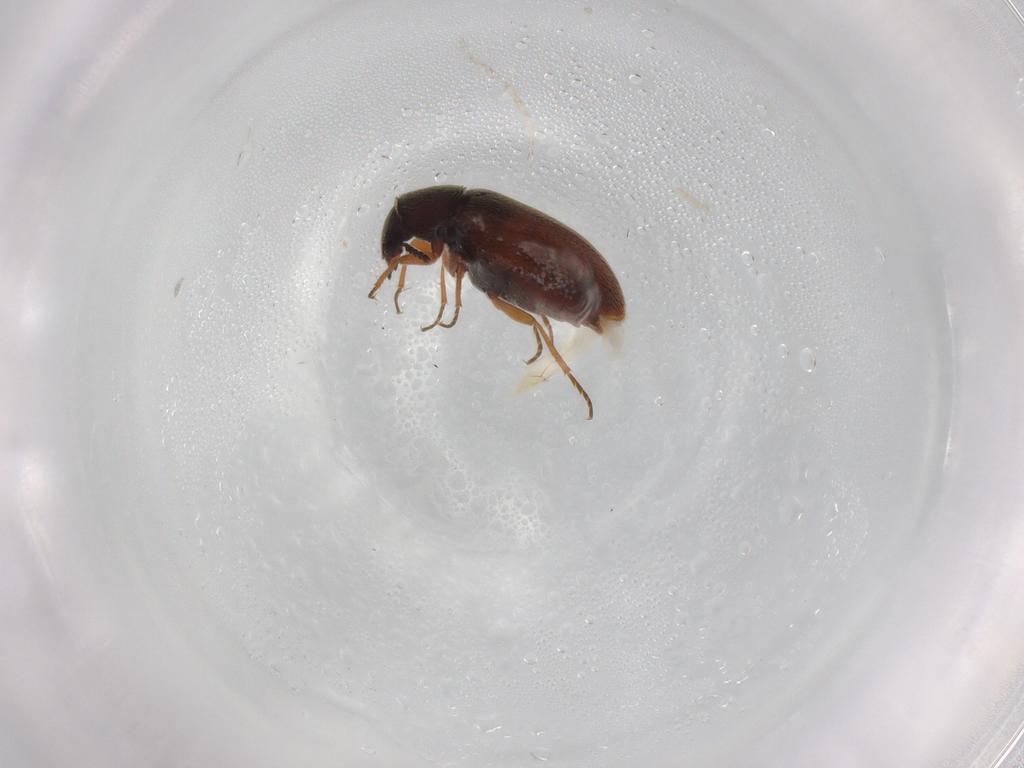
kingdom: Animalia
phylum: Arthropoda
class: Insecta
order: Coleoptera
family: Rhadalidae
